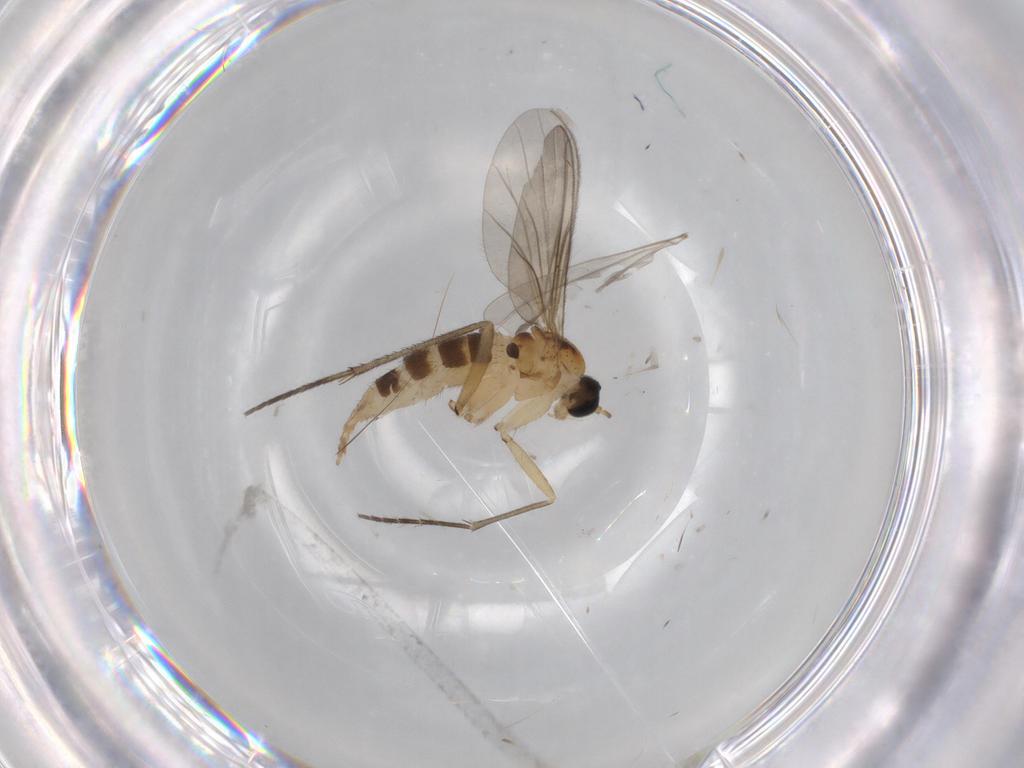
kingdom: Animalia
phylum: Arthropoda
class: Insecta
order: Diptera
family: Sciaridae
